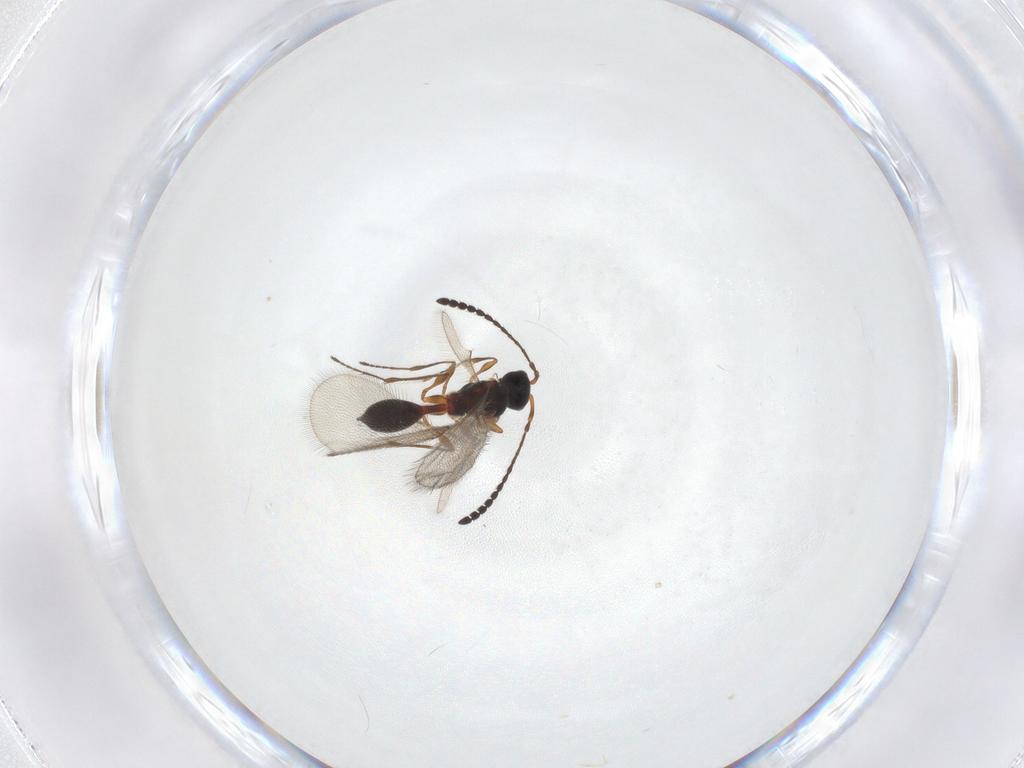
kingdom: Animalia
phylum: Arthropoda
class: Insecta
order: Hymenoptera
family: Diapriidae
